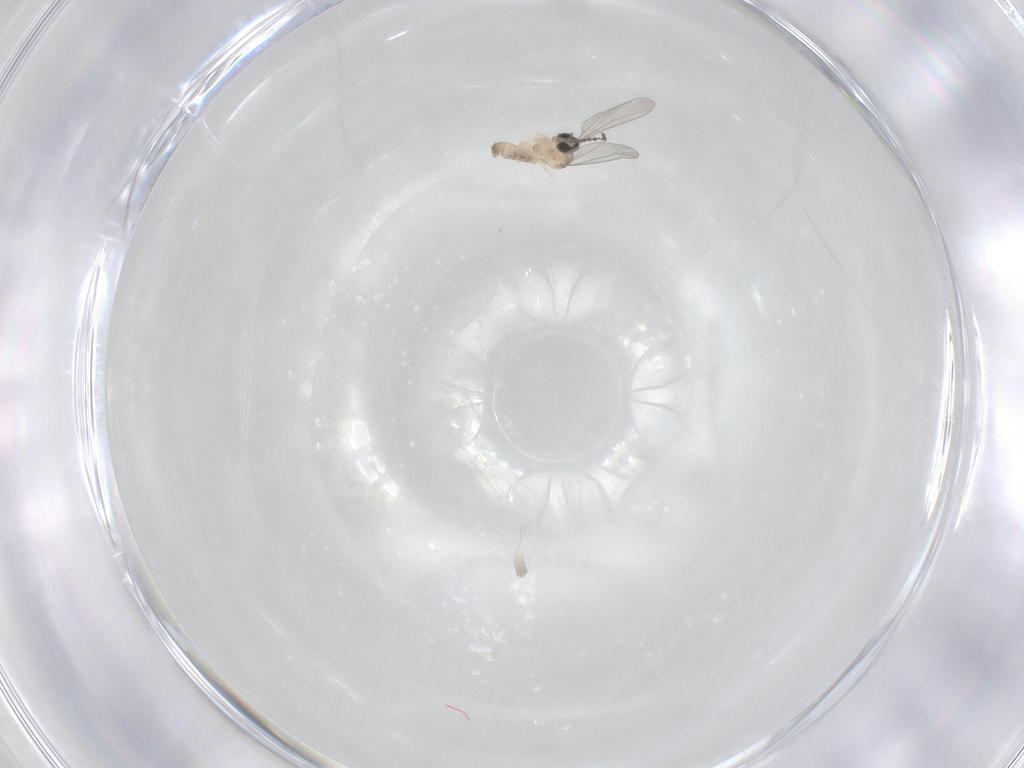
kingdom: Animalia
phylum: Arthropoda
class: Insecta
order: Diptera
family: Cecidomyiidae
